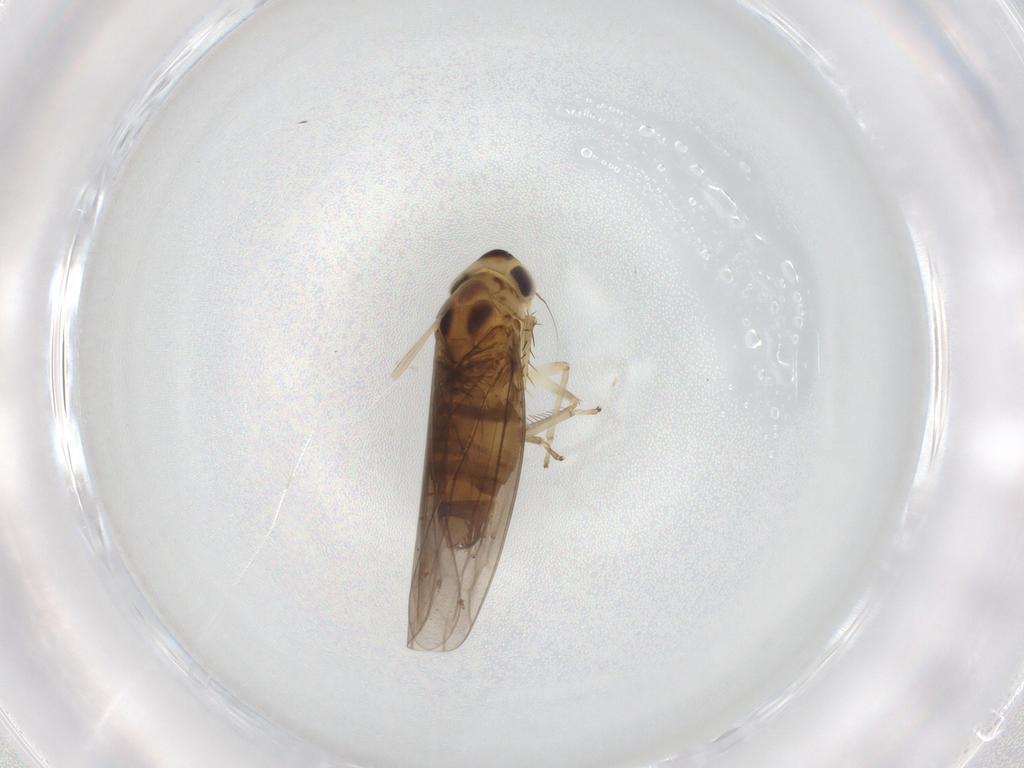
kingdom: Animalia
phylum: Arthropoda
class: Insecta
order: Hemiptera
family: Cicadellidae
